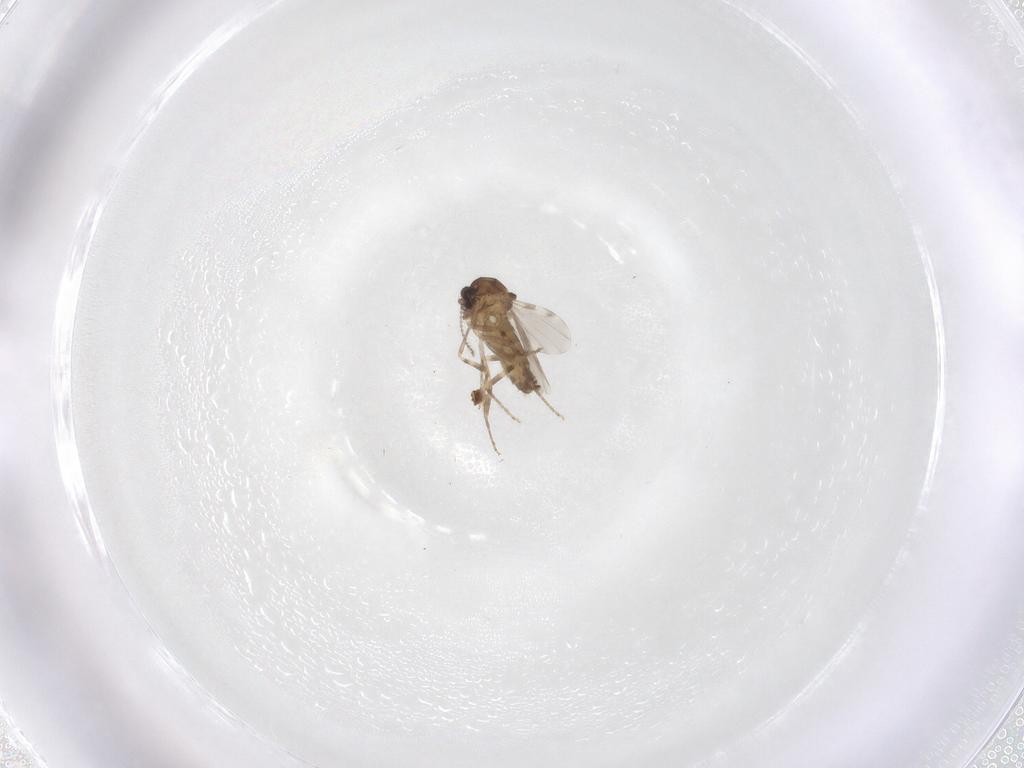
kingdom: Animalia
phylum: Arthropoda
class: Insecta
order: Diptera
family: Ceratopogonidae
